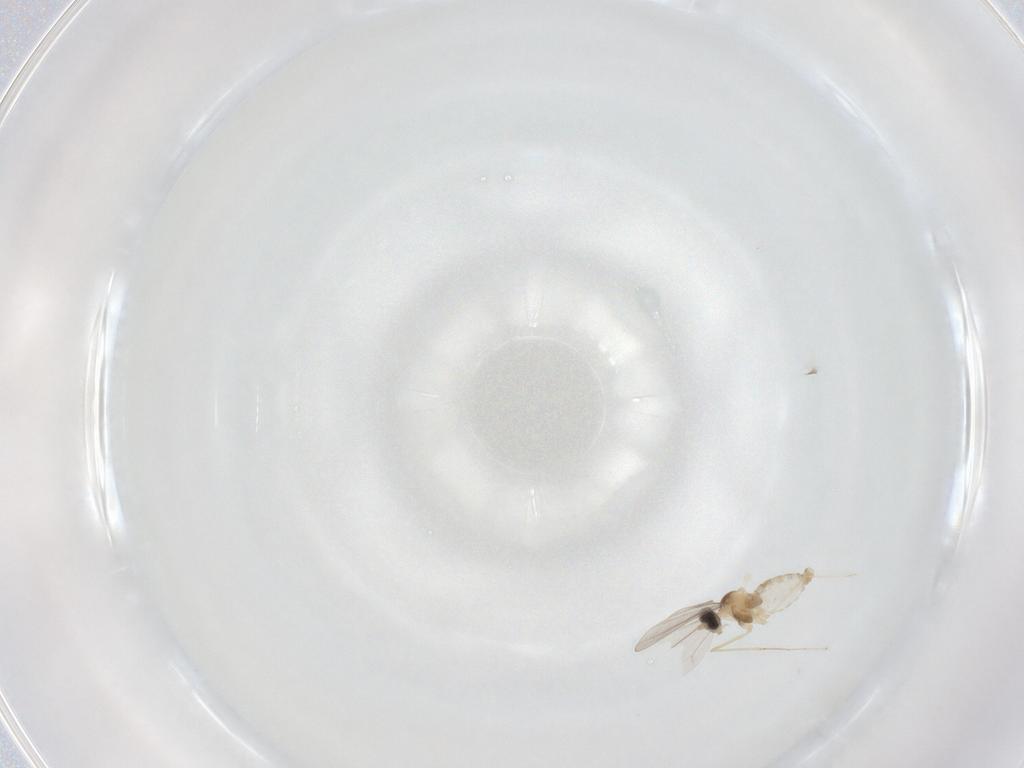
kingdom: Animalia
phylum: Arthropoda
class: Insecta
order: Diptera
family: Cecidomyiidae
